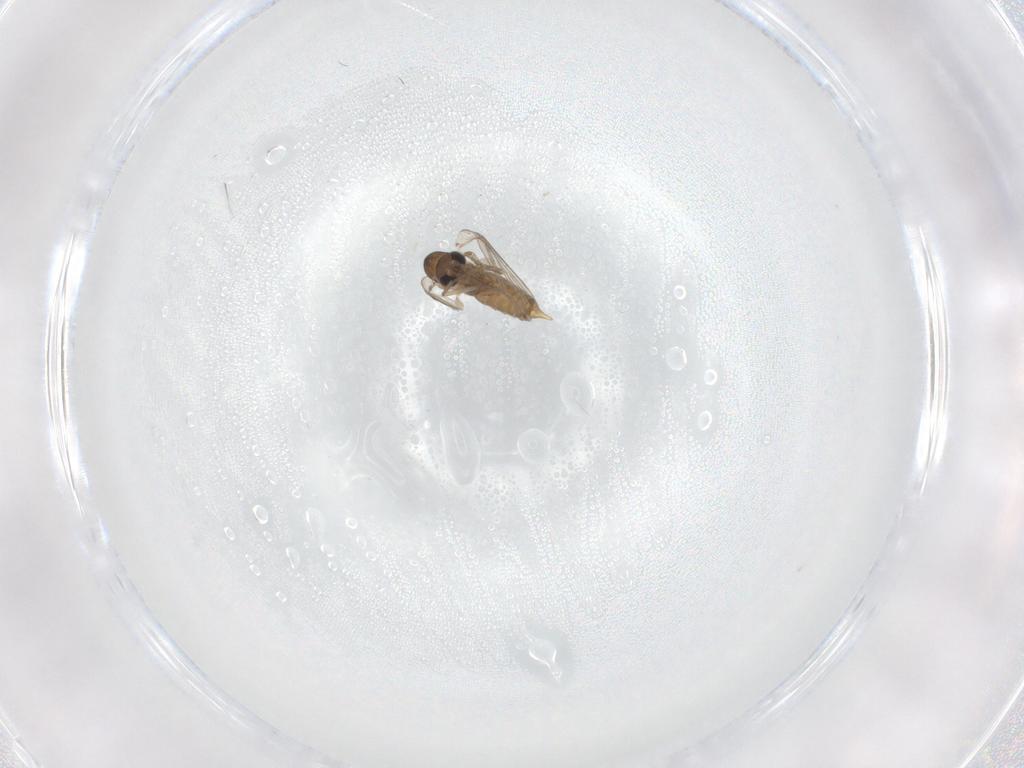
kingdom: Animalia
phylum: Arthropoda
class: Insecta
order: Diptera
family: Psychodidae
